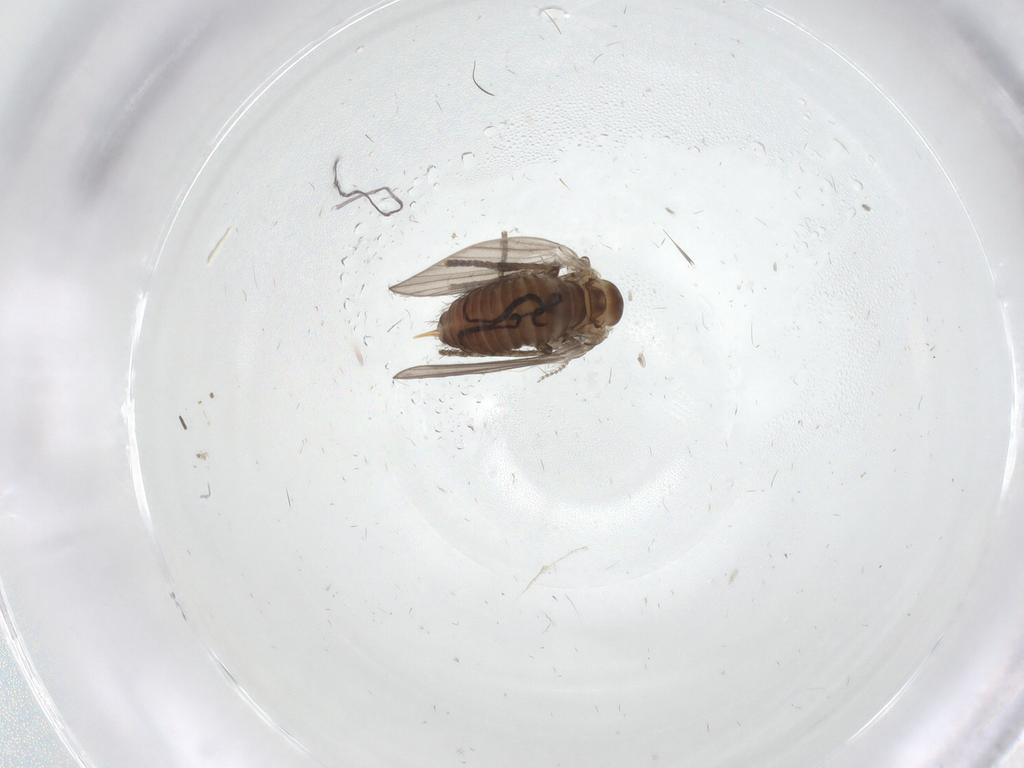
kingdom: Animalia
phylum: Arthropoda
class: Insecta
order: Diptera
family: Psychodidae
